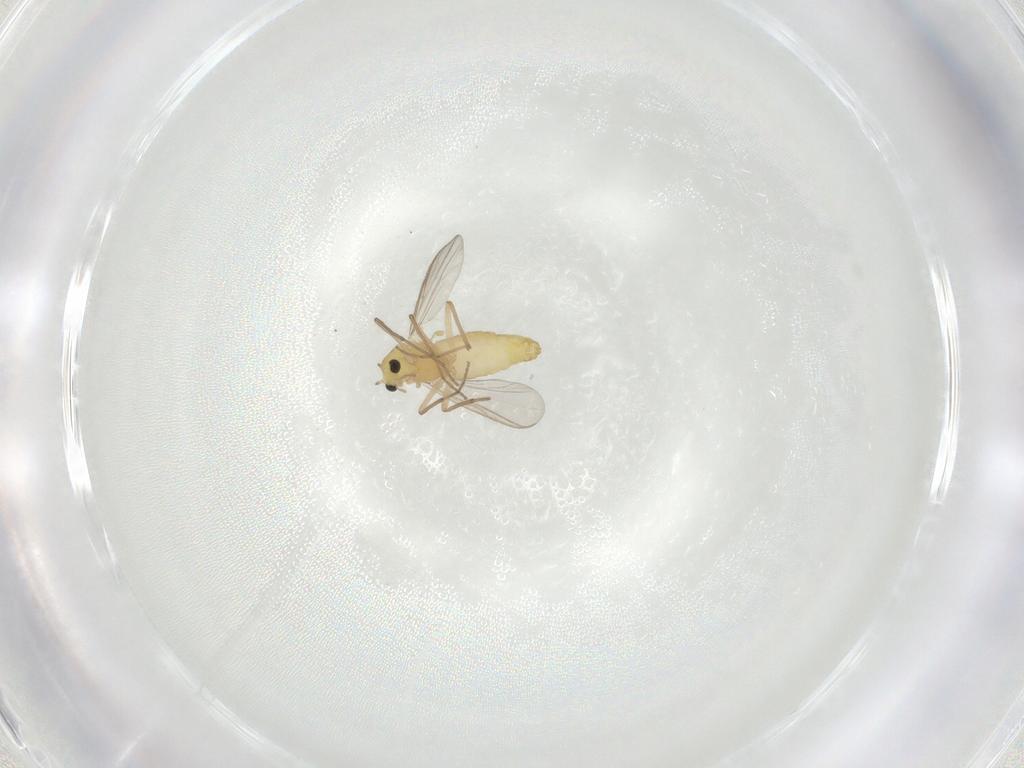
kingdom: Animalia
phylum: Arthropoda
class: Insecta
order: Diptera
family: Chironomidae
